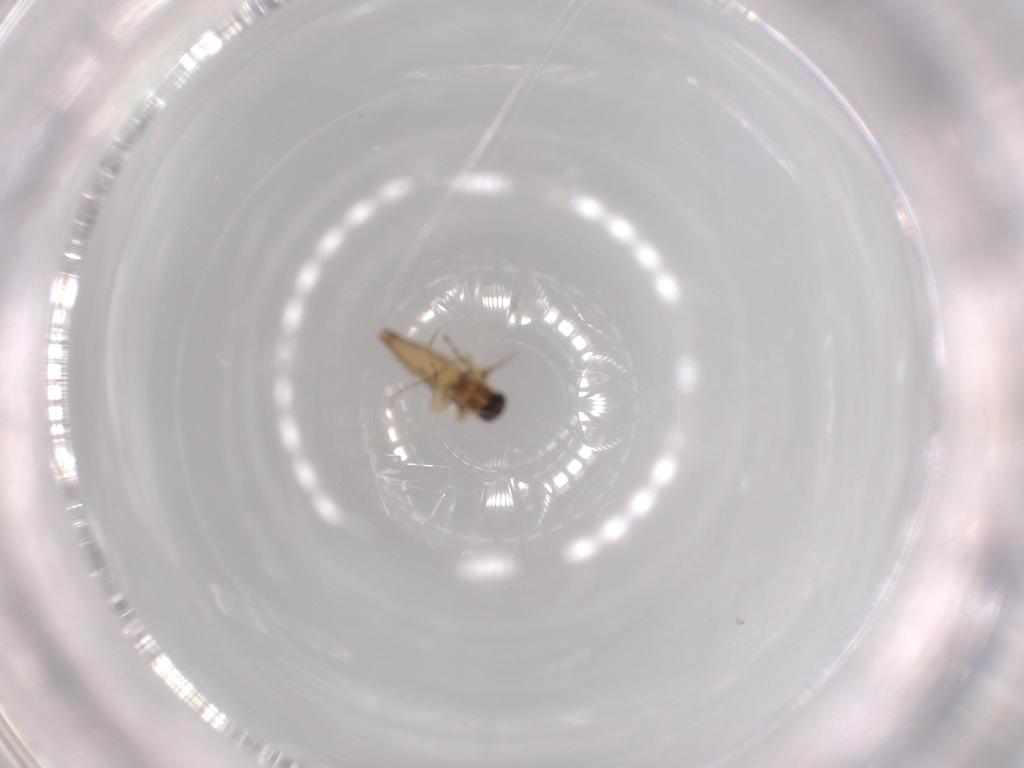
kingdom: Animalia
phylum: Arthropoda
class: Insecta
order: Diptera
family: Ceratopogonidae
